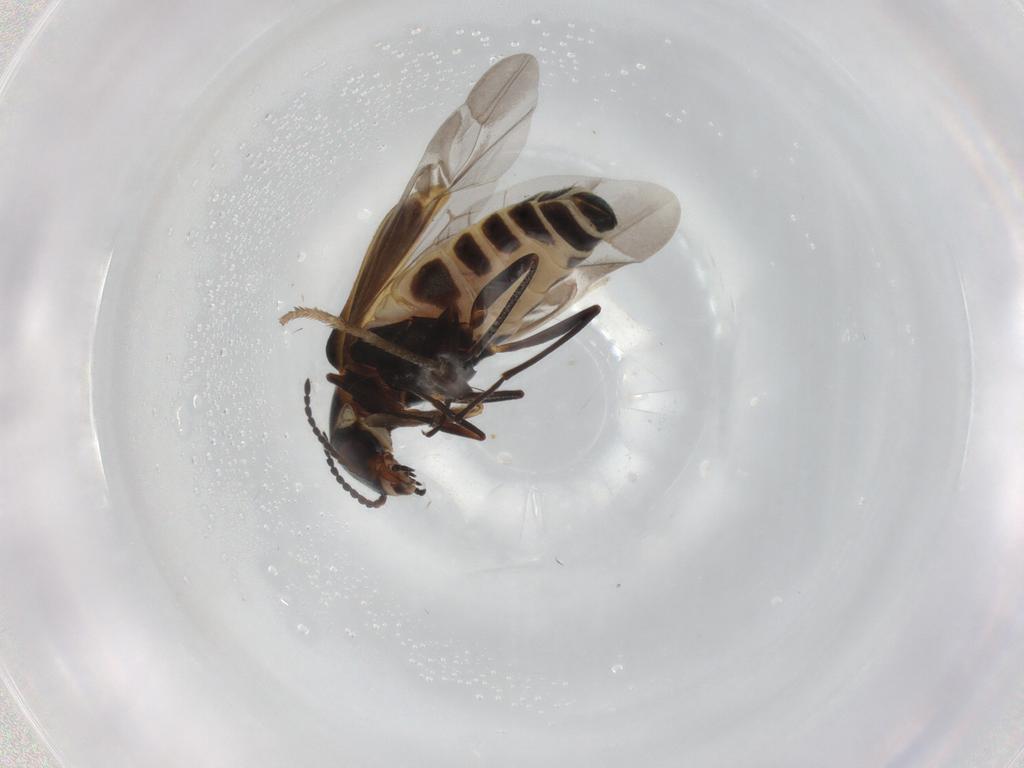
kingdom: Animalia
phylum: Arthropoda
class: Insecta
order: Coleoptera
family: Melyridae
